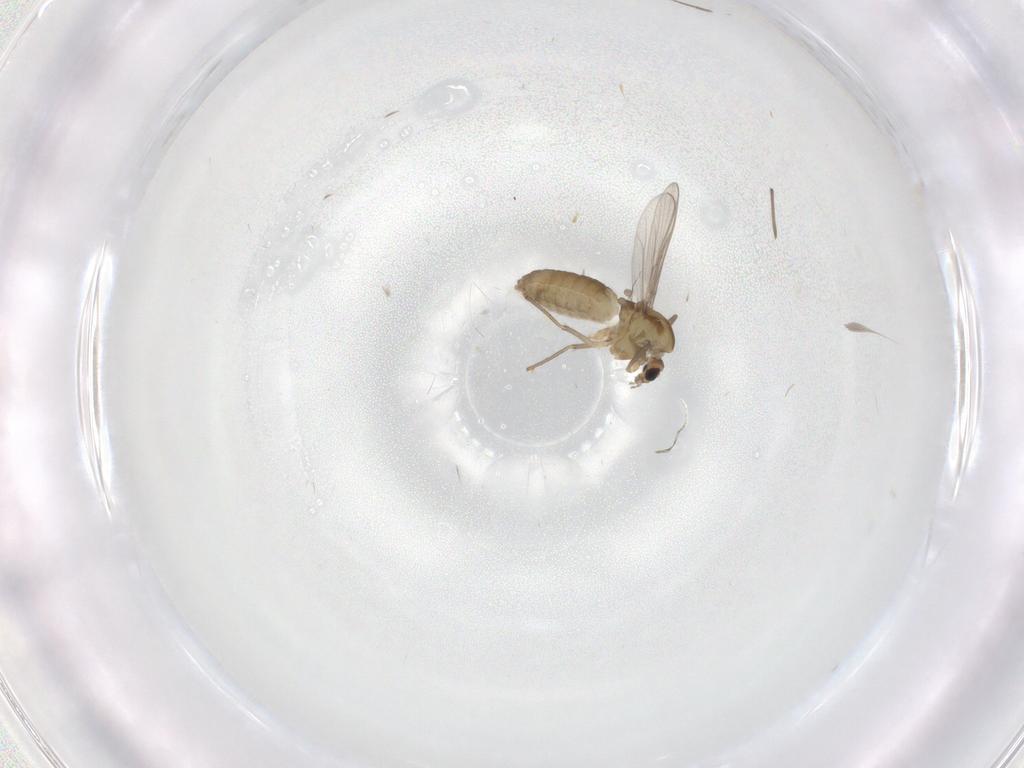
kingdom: Animalia
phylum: Arthropoda
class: Insecta
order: Diptera
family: Chironomidae
